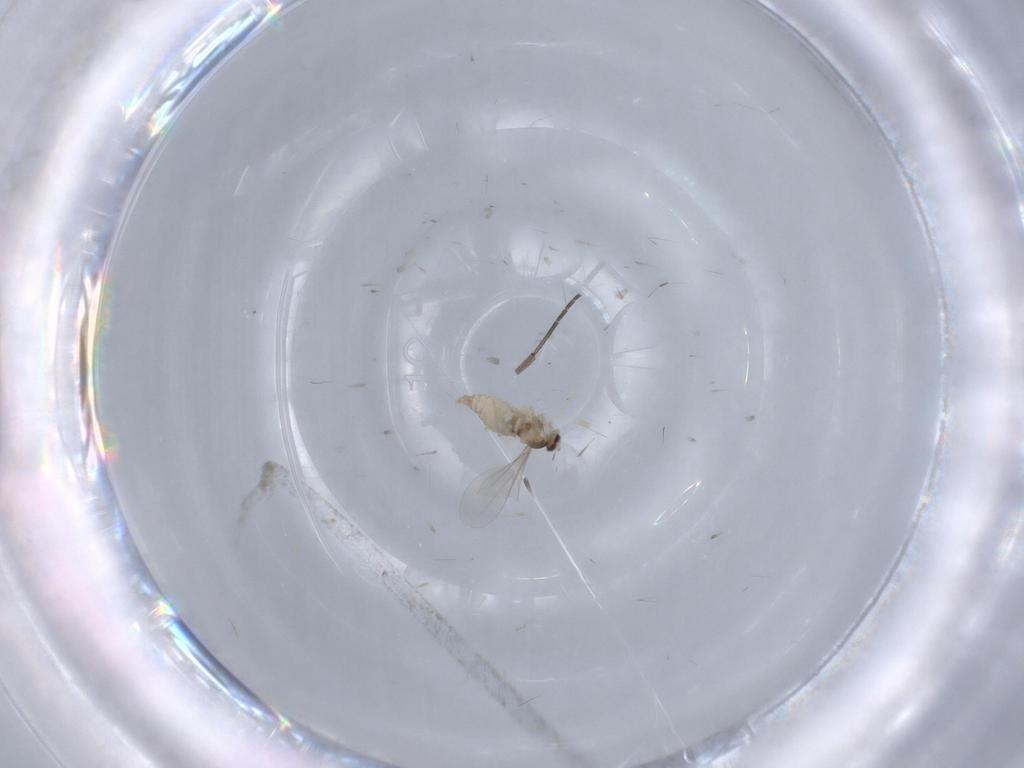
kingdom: Animalia
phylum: Arthropoda
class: Insecta
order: Diptera
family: Cecidomyiidae
